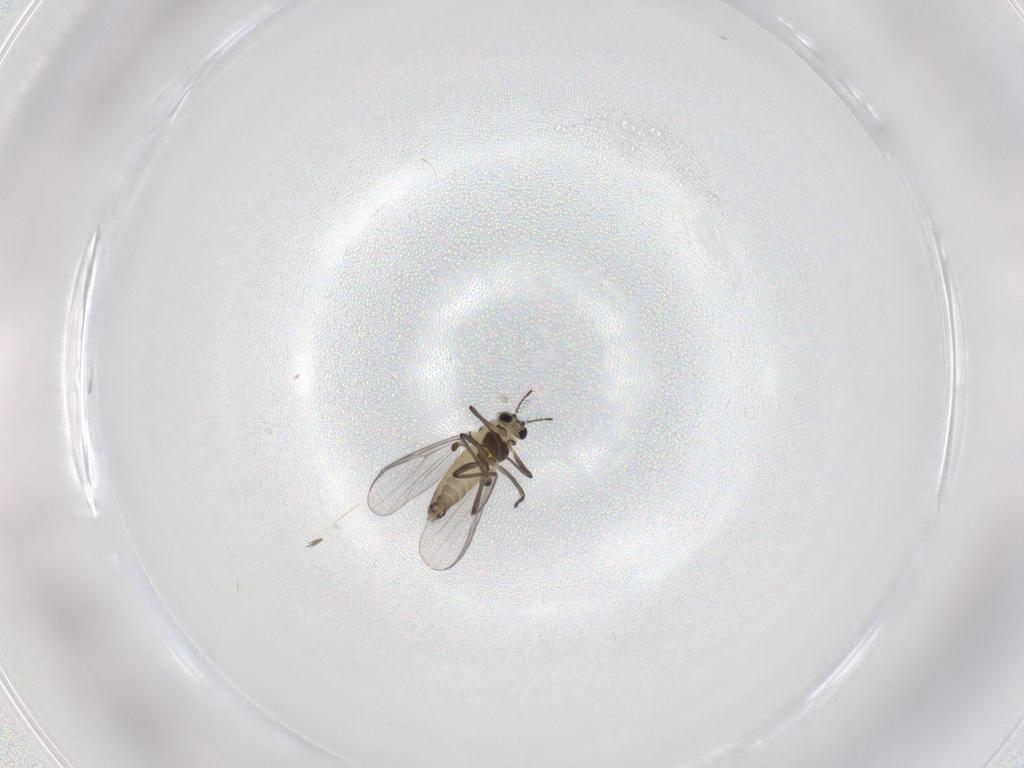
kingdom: Animalia
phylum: Arthropoda
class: Insecta
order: Diptera
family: Chironomidae
